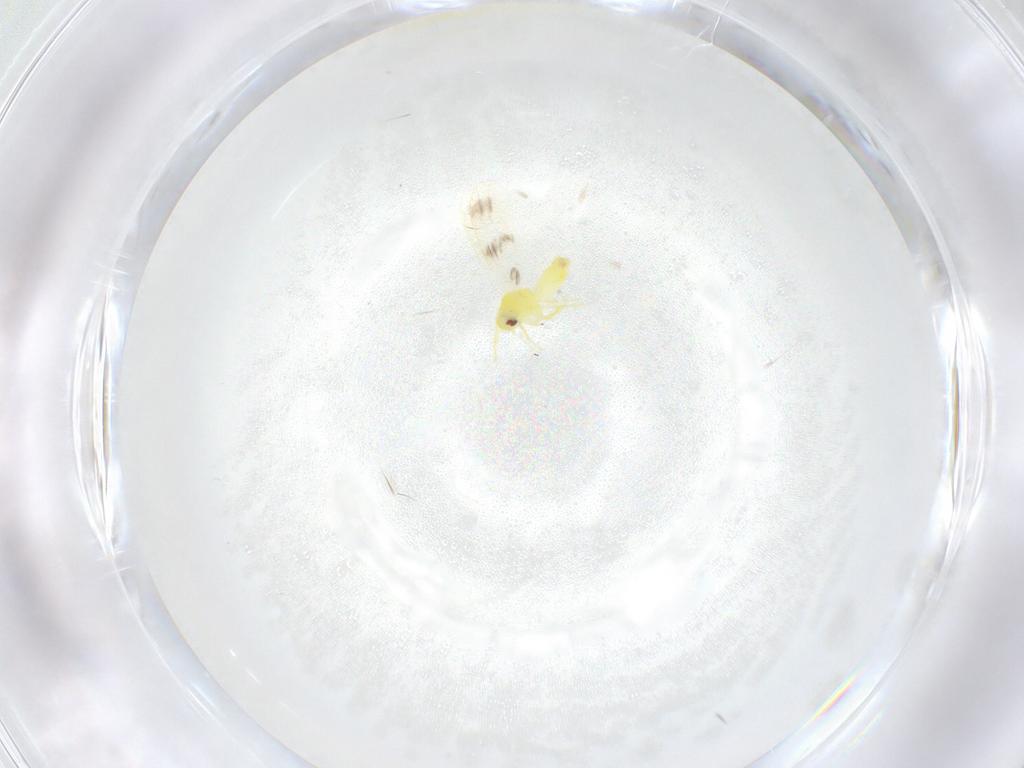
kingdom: Animalia
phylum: Arthropoda
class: Insecta
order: Hemiptera
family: Aleyrodidae
